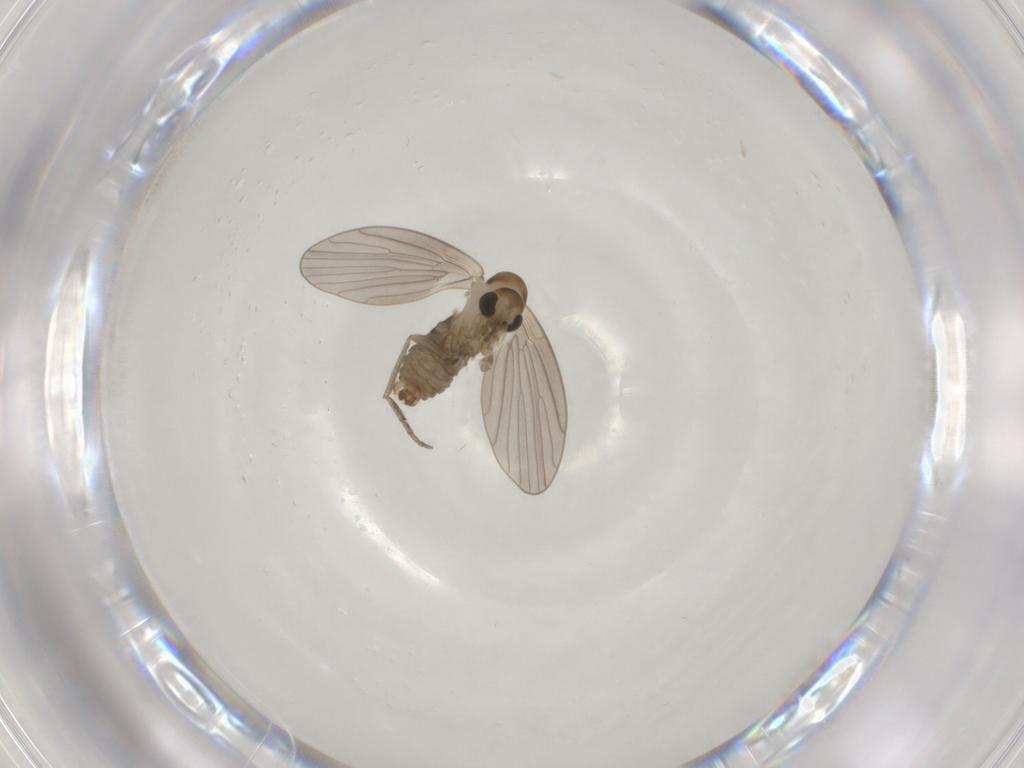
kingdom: Animalia
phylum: Arthropoda
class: Insecta
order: Diptera
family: Psychodidae
